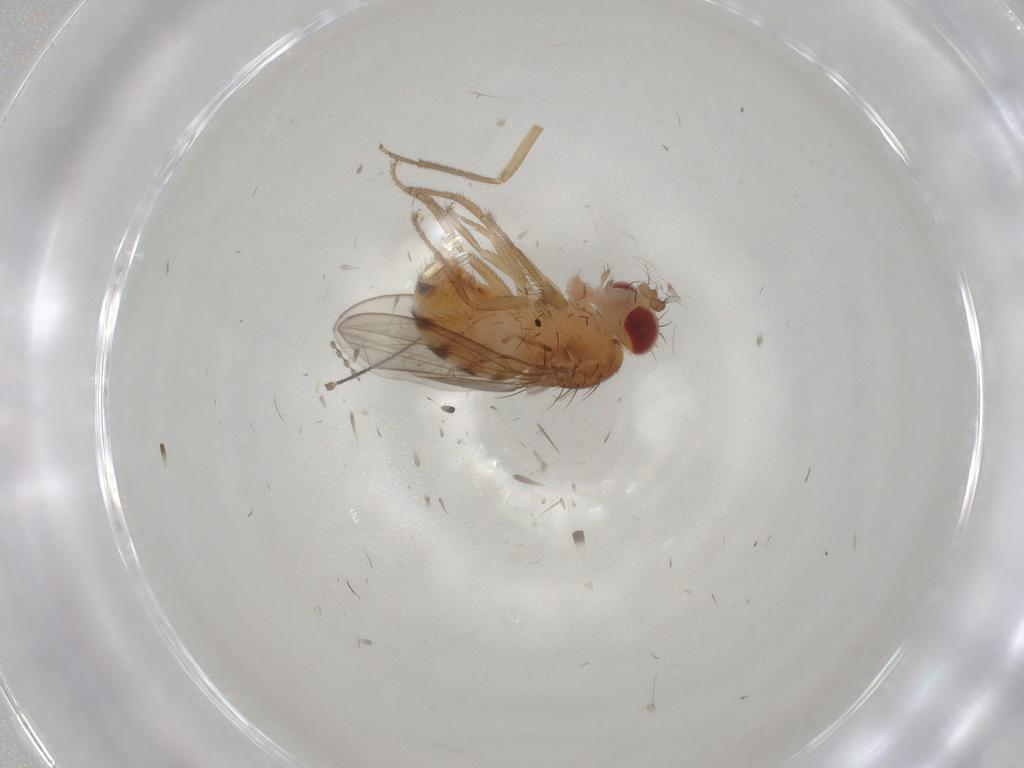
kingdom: Animalia
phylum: Arthropoda
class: Insecta
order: Diptera
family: Drosophilidae
